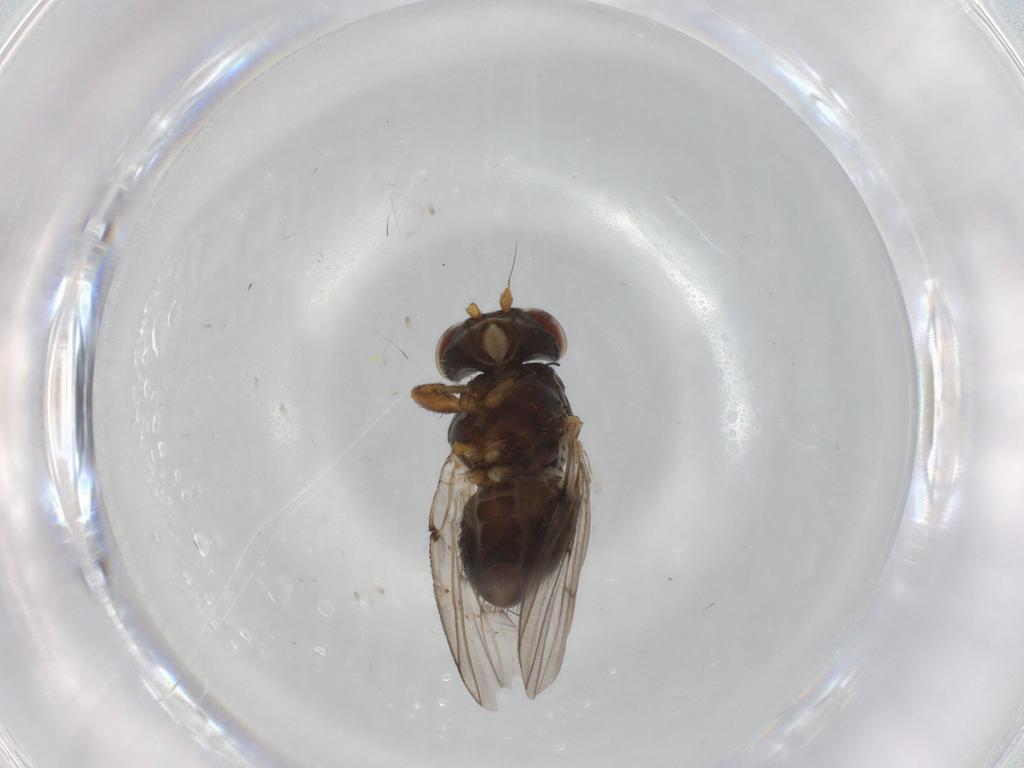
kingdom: Animalia
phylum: Arthropoda
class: Insecta
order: Diptera
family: Odiniidae
